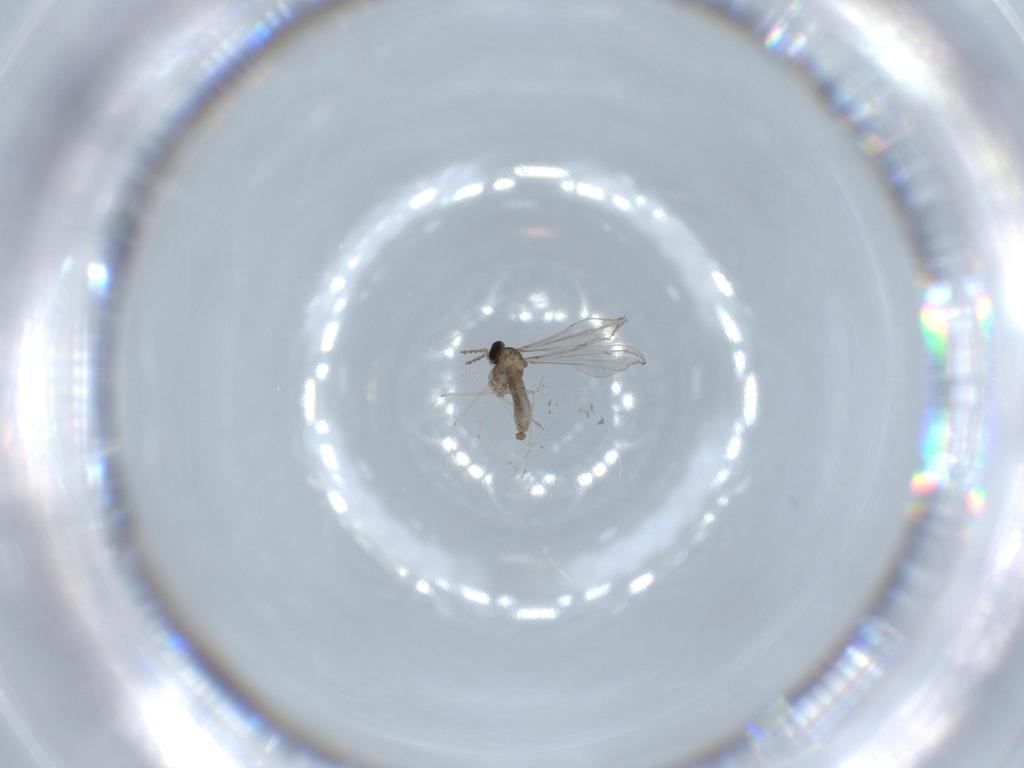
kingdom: Animalia
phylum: Arthropoda
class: Insecta
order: Diptera
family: Cecidomyiidae
